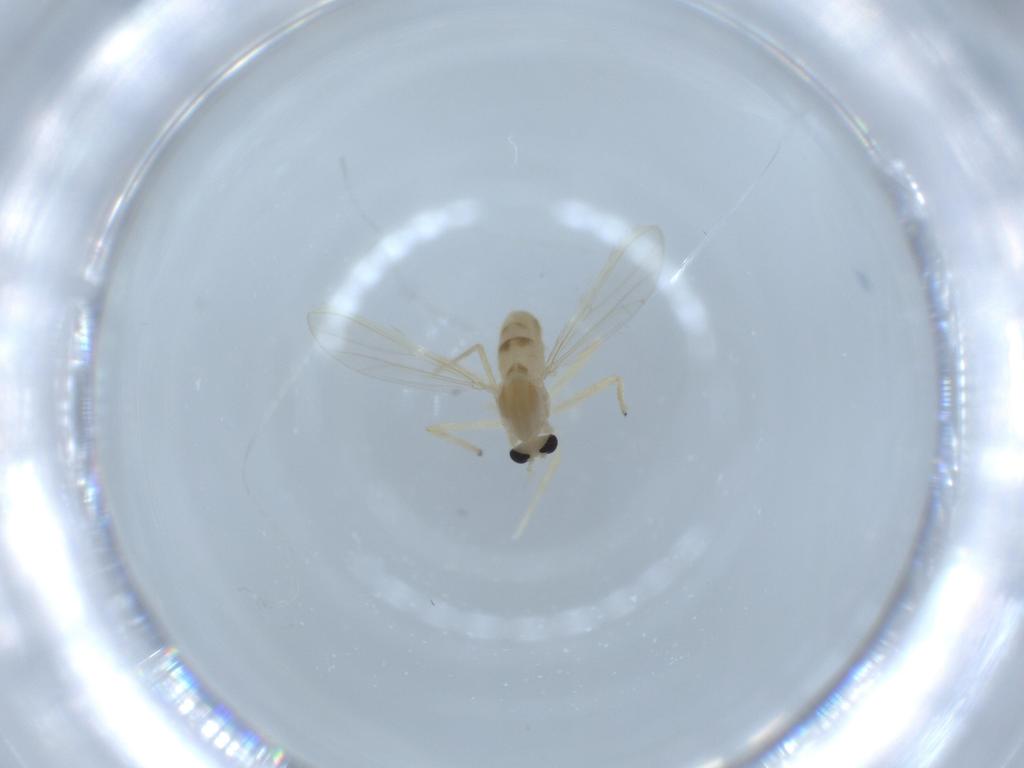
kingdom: Animalia
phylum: Arthropoda
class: Insecta
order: Diptera
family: Chironomidae
